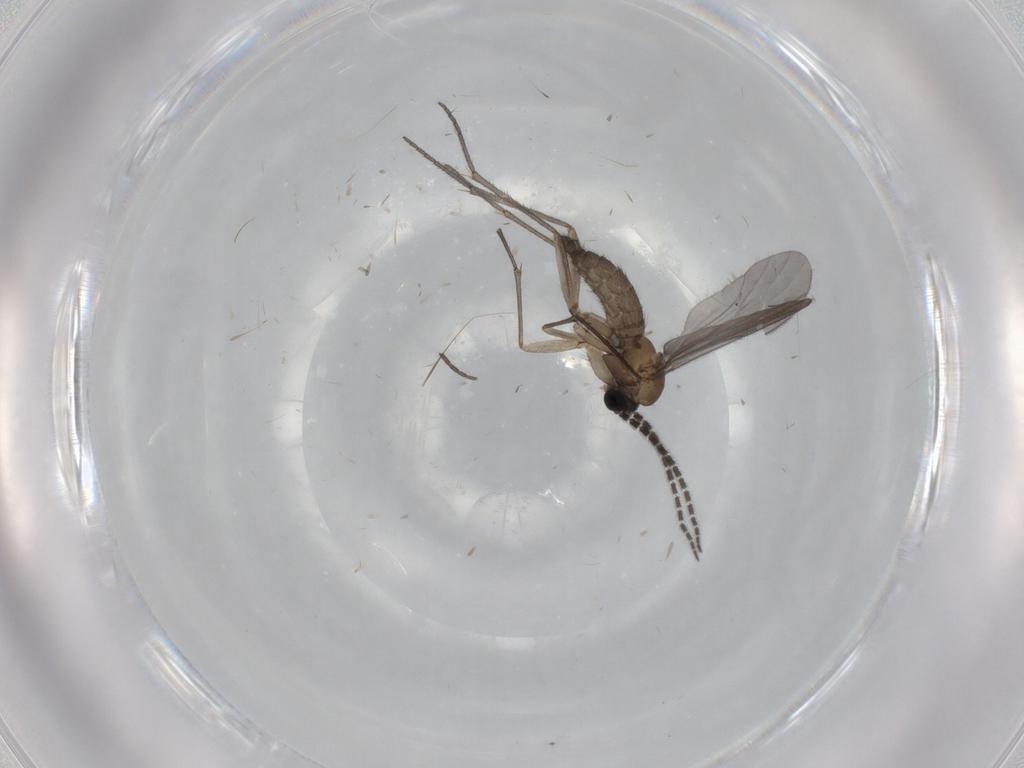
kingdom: Animalia
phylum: Arthropoda
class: Insecta
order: Diptera
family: Sciaridae
